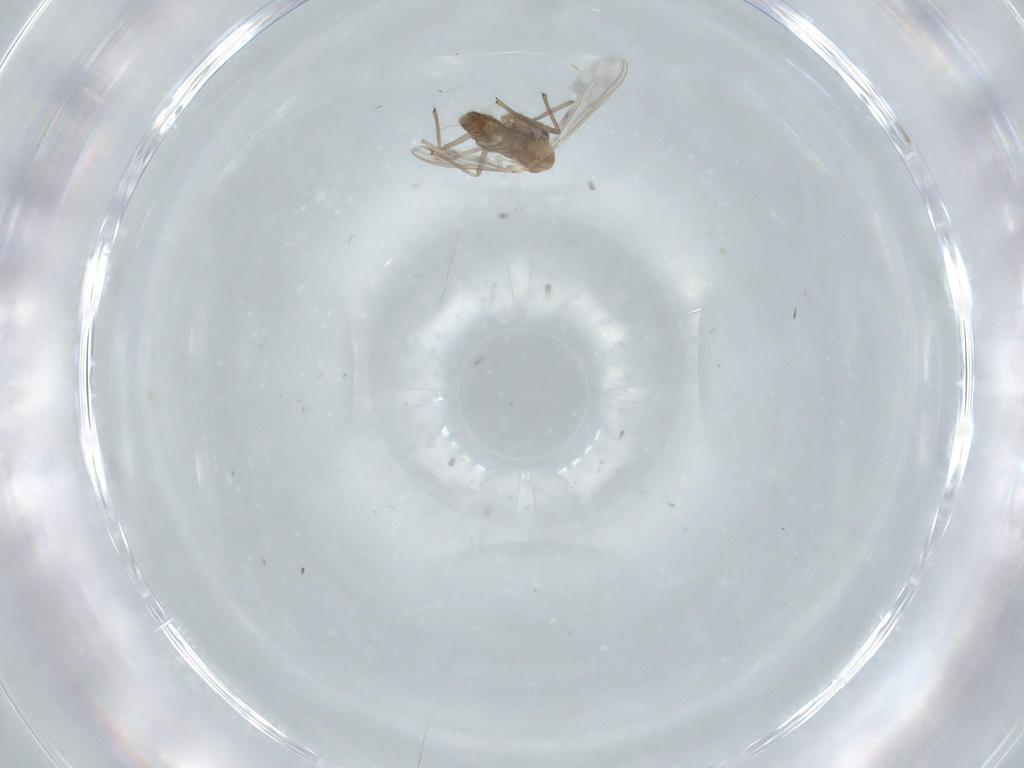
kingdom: Animalia
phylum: Arthropoda
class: Insecta
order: Diptera
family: Chironomidae
